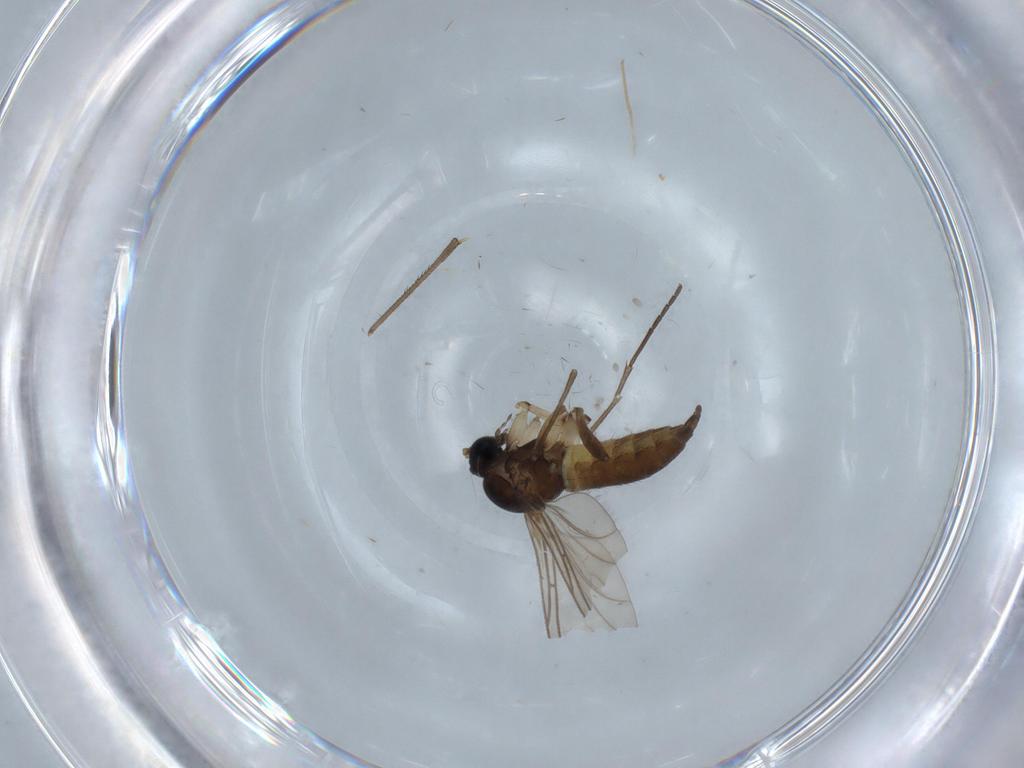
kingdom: Animalia
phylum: Arthropoda
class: Insecta
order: Diptera
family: Sciaridae
